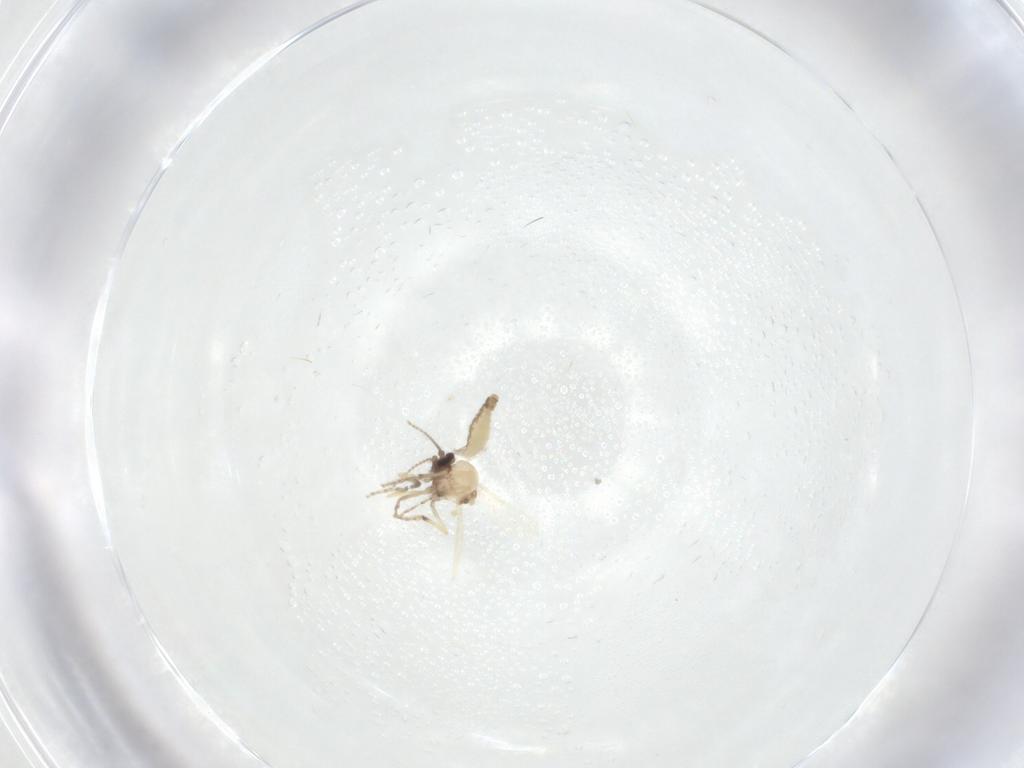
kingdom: Animalia
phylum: Arthropoda
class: Insecta
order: Diptera
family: Ceratopogonidae
